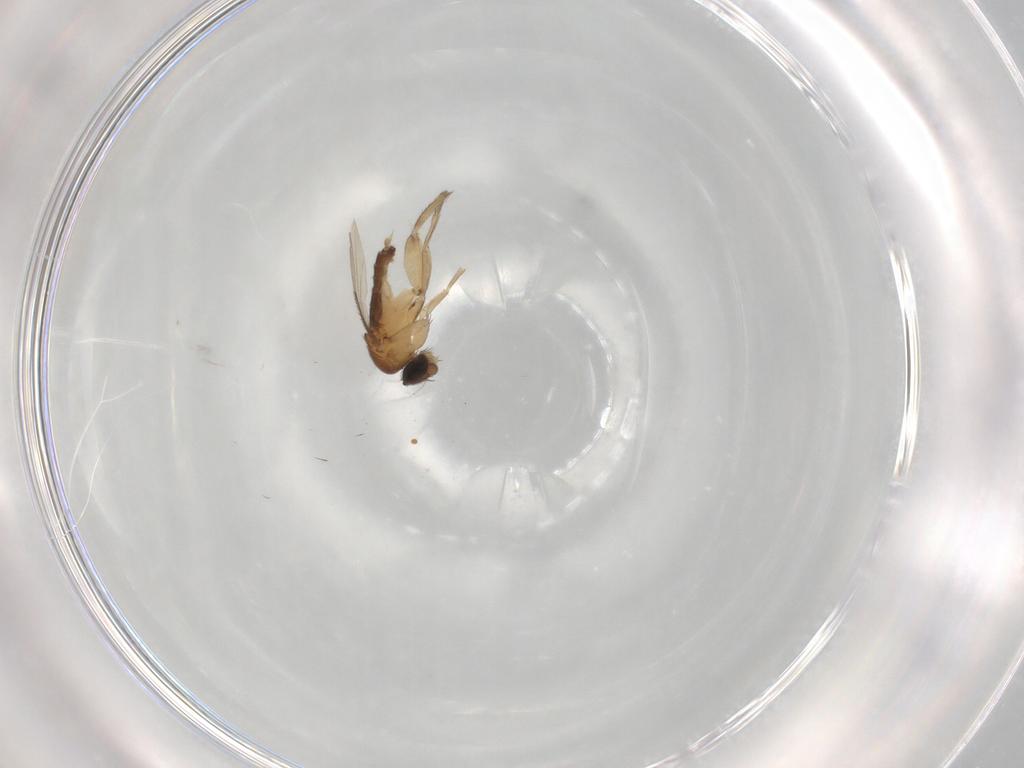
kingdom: Animalia
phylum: Arthropoda
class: Insecta
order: Diptera
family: Phoridae
